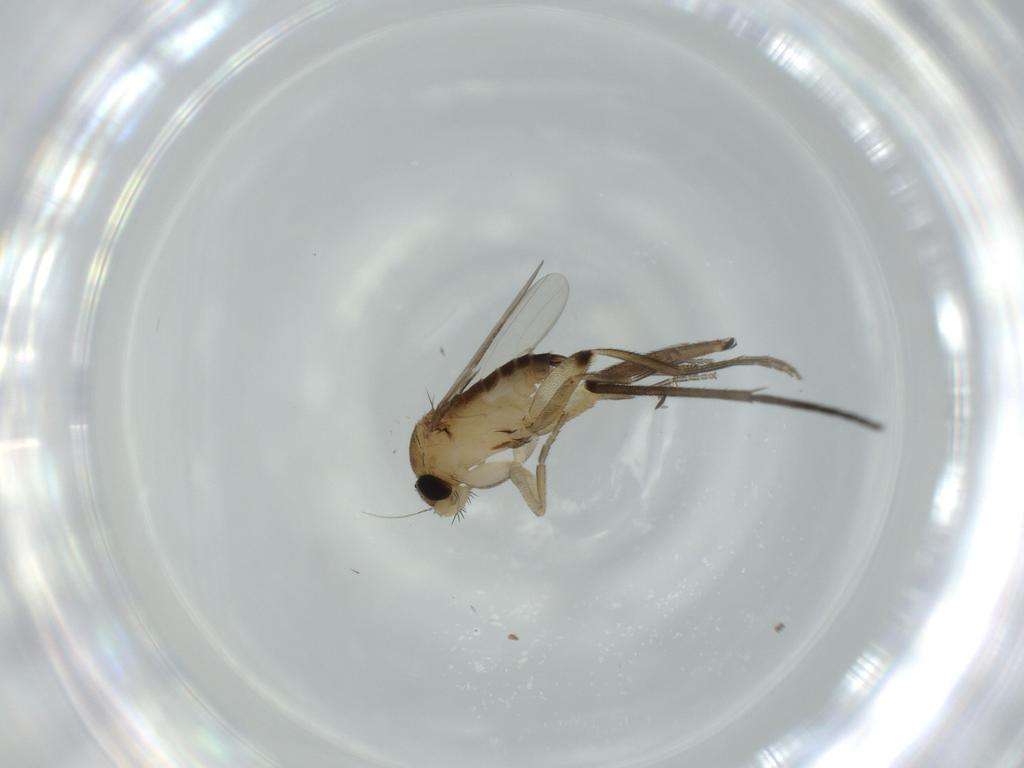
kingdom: Animalia
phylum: Arthropoda
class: Insecta
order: Diptera
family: Phoridae
